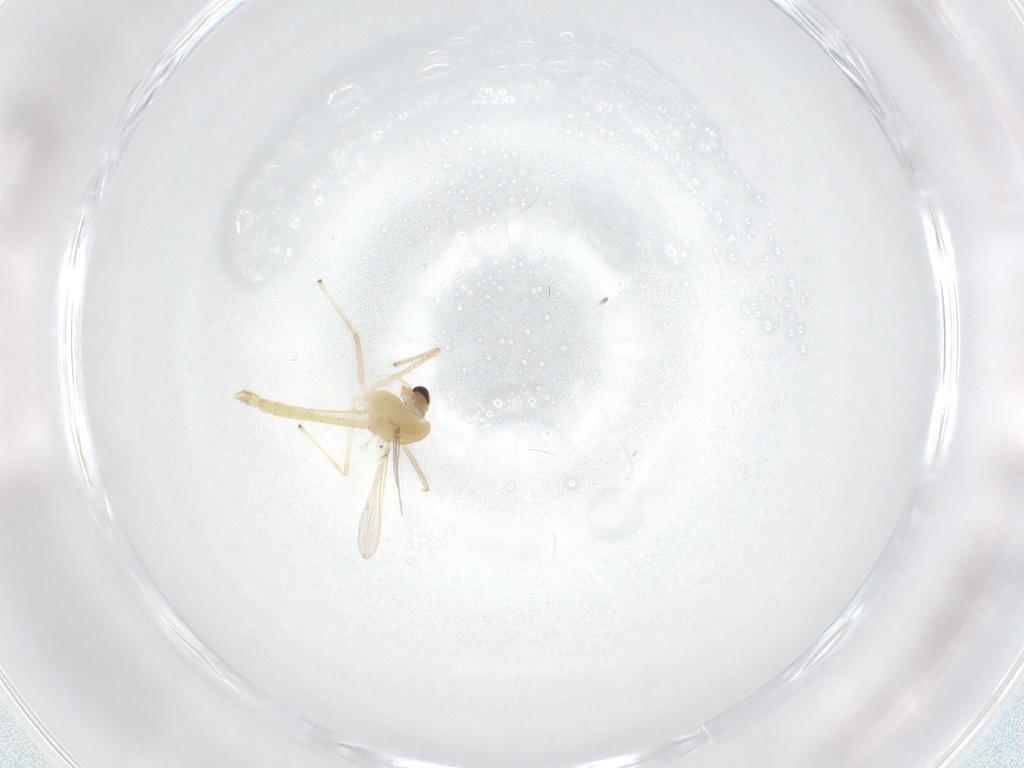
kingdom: Animalia
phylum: Arthropoda
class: Insecta
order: Diptera
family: Chironomidae
